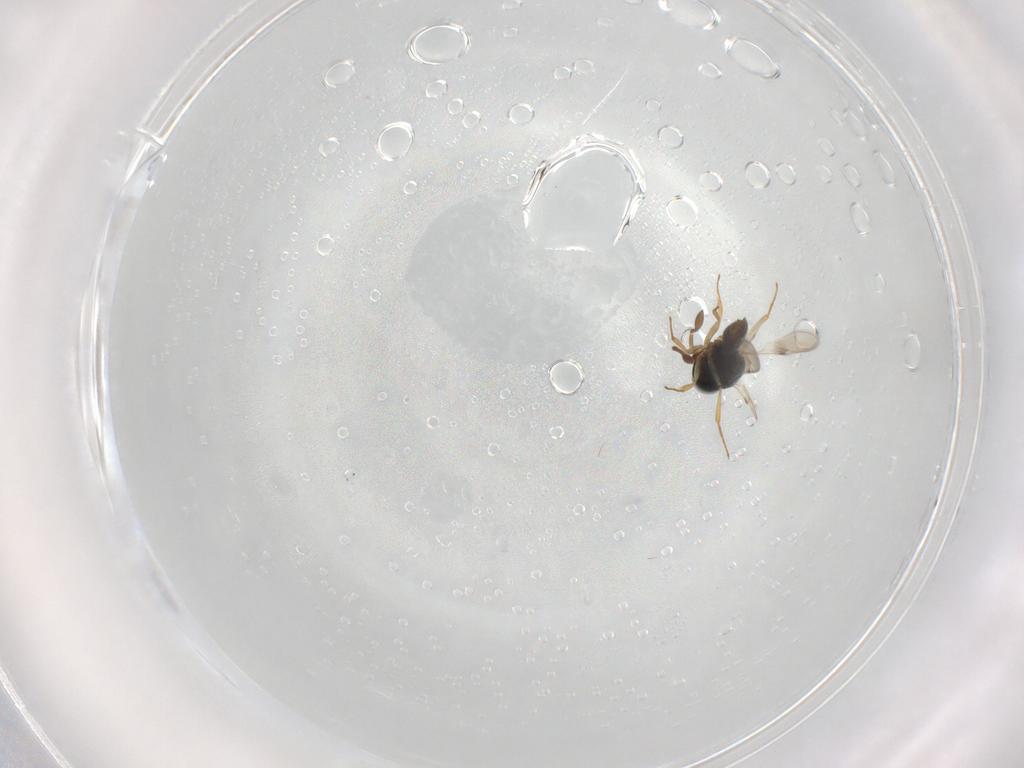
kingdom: Animalia
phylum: Arthropoda
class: Insecta
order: Hymenoptera
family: Scelionidae
